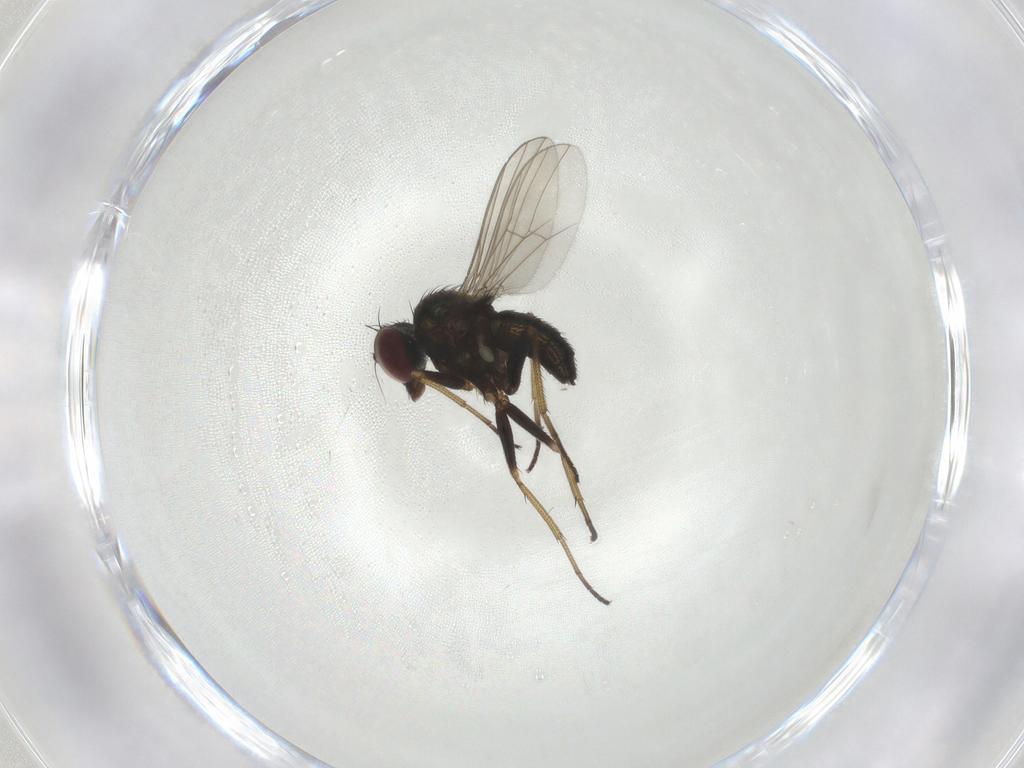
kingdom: Animalia
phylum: Arthropoda
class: Insecta
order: Diptera
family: Dolichopodidae
